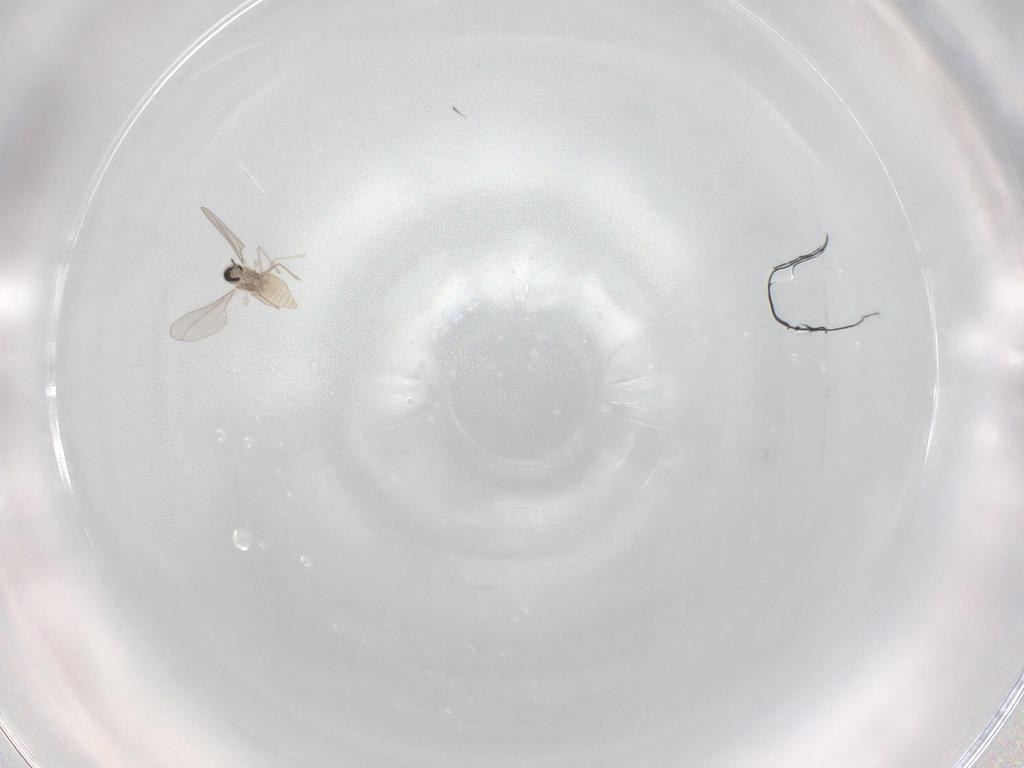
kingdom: Animalia
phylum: Arthropoda
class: Insecta
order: Diptera
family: Cecidomyiidae
